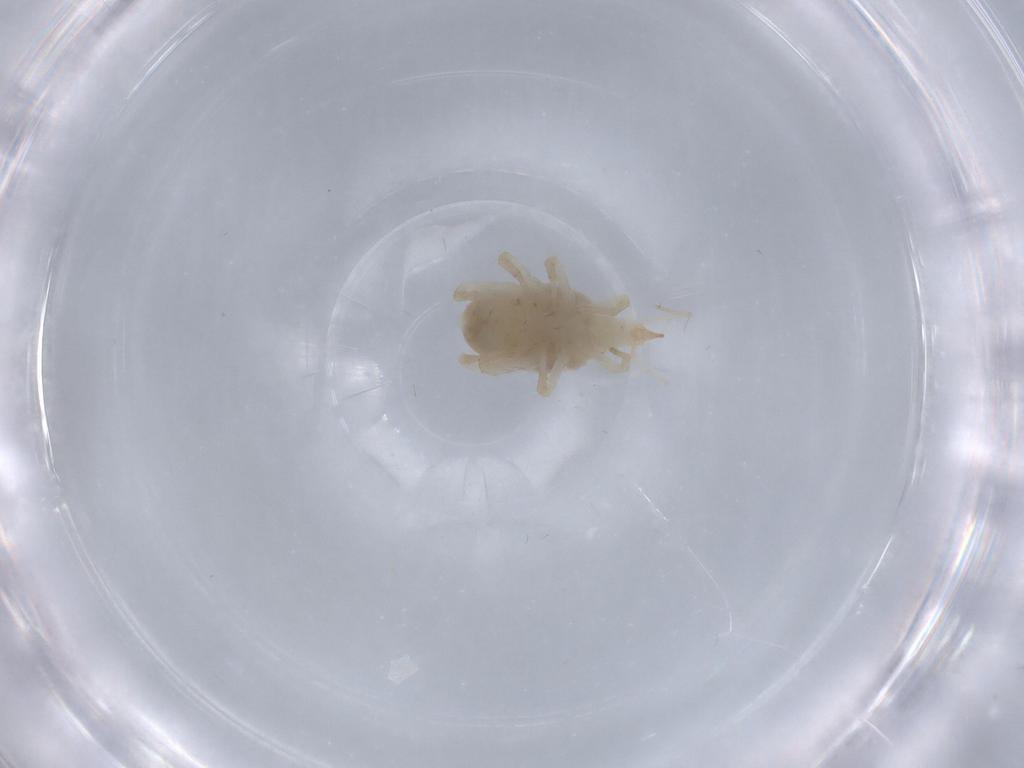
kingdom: Animalia
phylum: Arthropoda
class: Arachnida
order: Trombidiformes
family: Bdellidae
